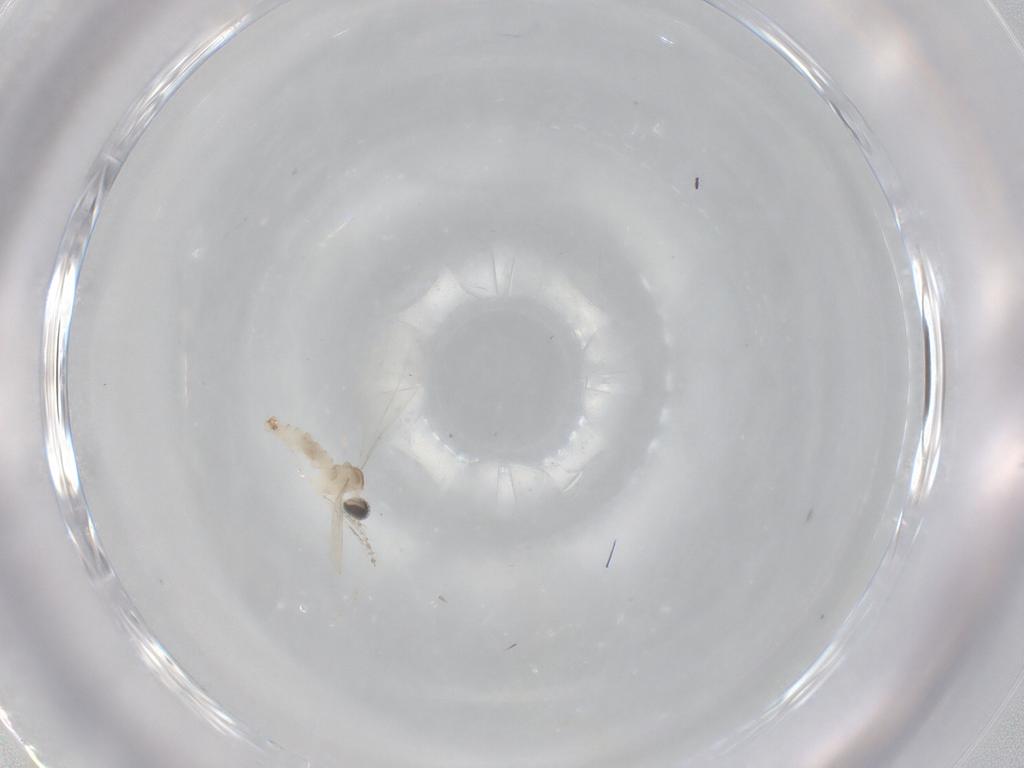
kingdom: Animalia
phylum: Arthropoda
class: Insecta
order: Diptera
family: Cecidomyiidae
